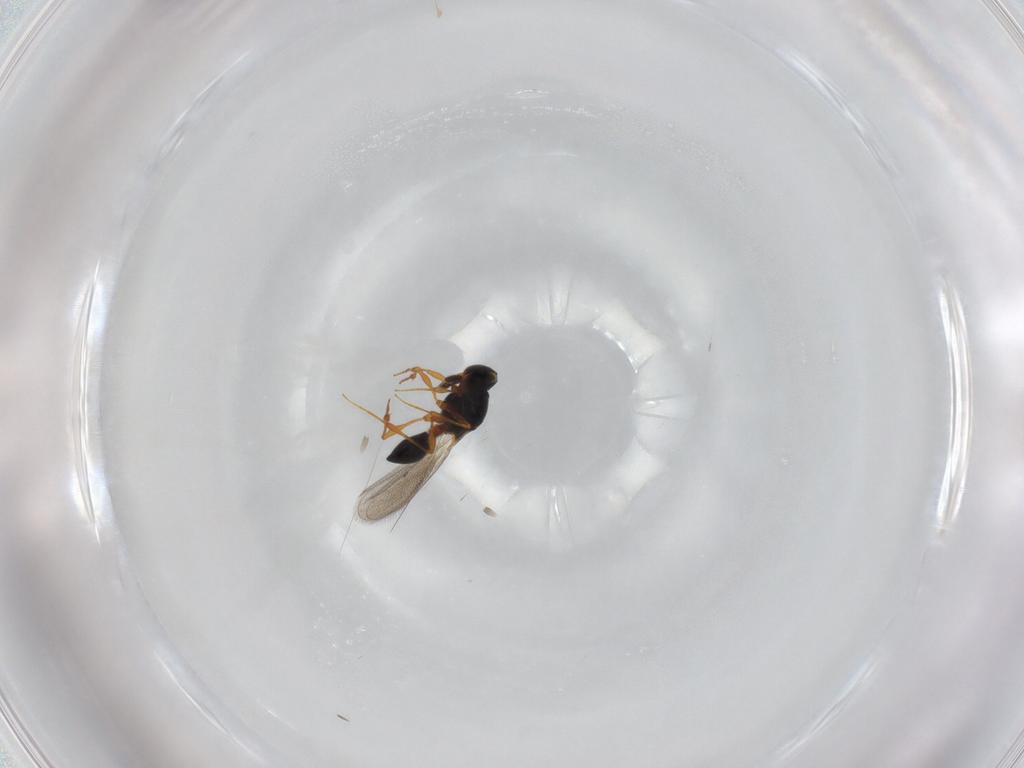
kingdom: Animalia
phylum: Arthropoda
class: Insecta
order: Hymenoptera
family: Platygastridae
